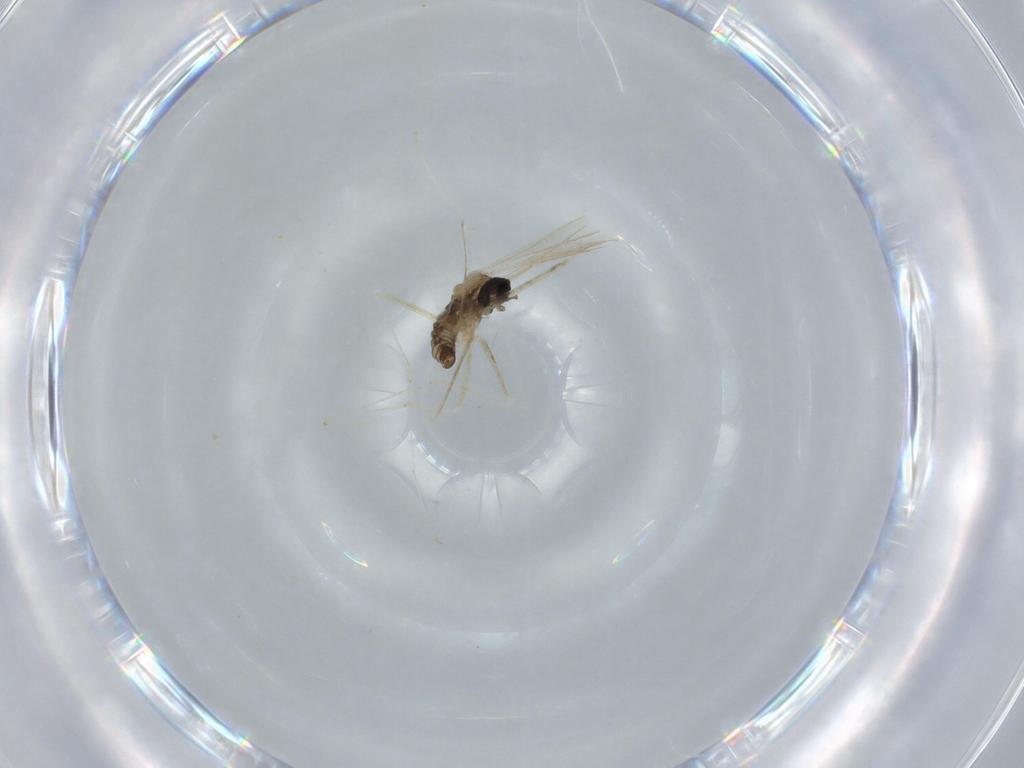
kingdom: Animalia
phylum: Arthropoda
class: Insecta
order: Diptera
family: Cecidomyiidae
